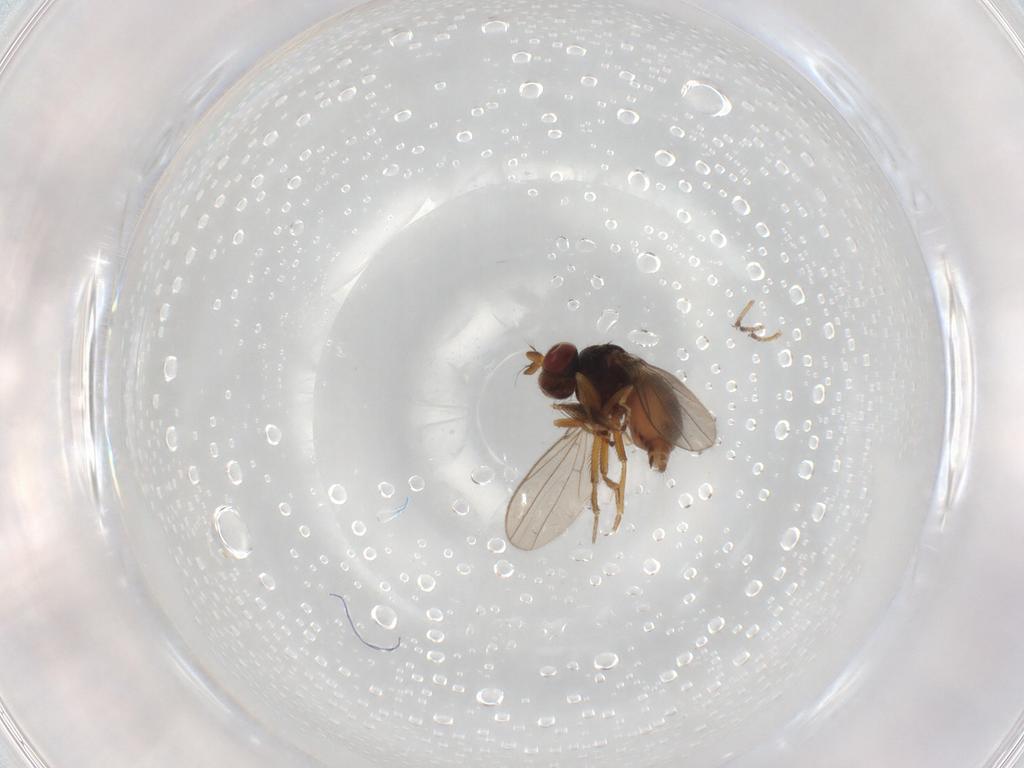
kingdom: Animalia
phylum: Arthropoda
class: Insecta
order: Diptera
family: Ephydridae
